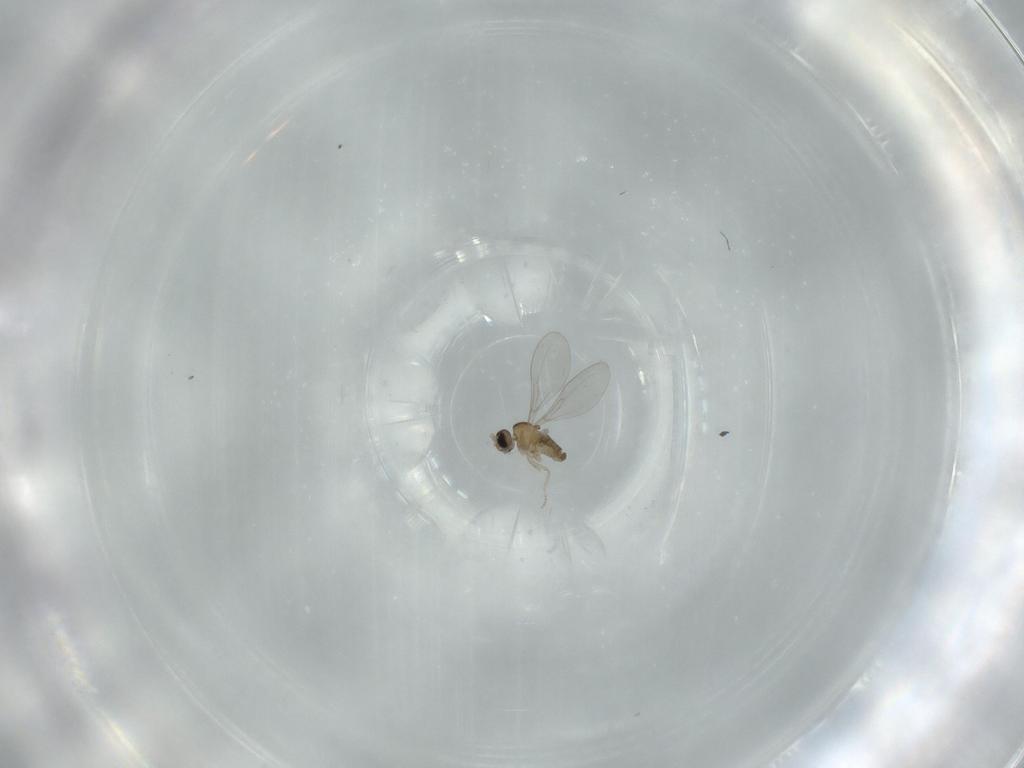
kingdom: Animalia
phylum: Arthropoda
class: Insecta
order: Diptera
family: Cecidomyiidae
